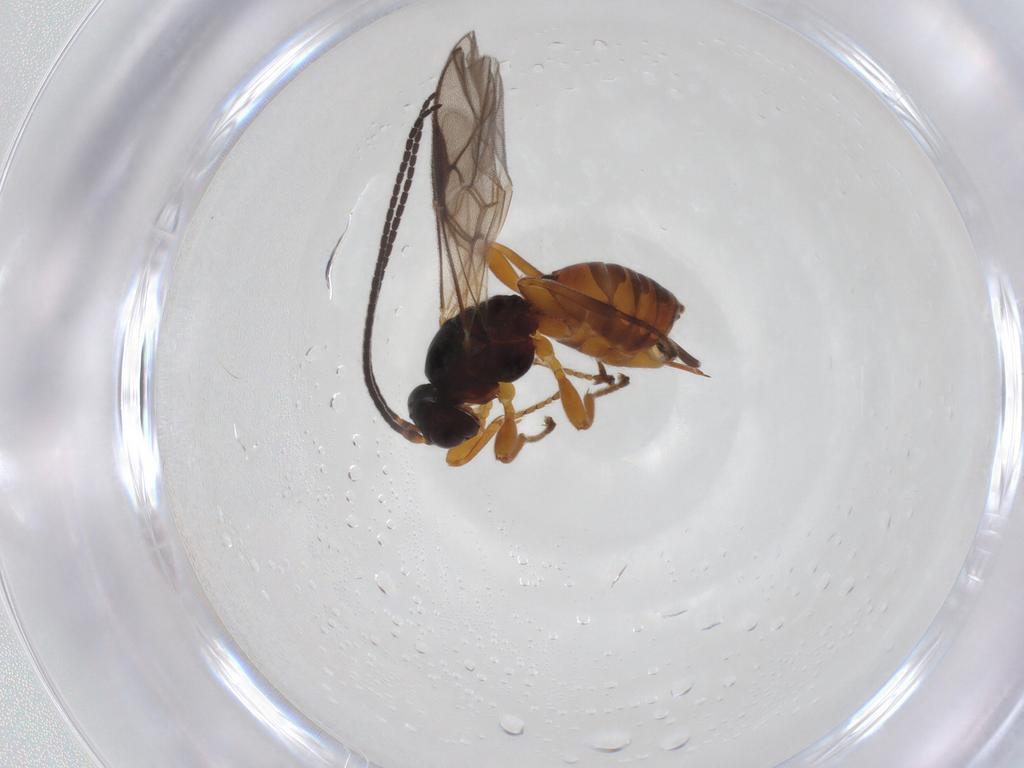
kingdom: Animalia
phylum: Arthropoda
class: Insecta
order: Hymenoptera
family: Braconidae
